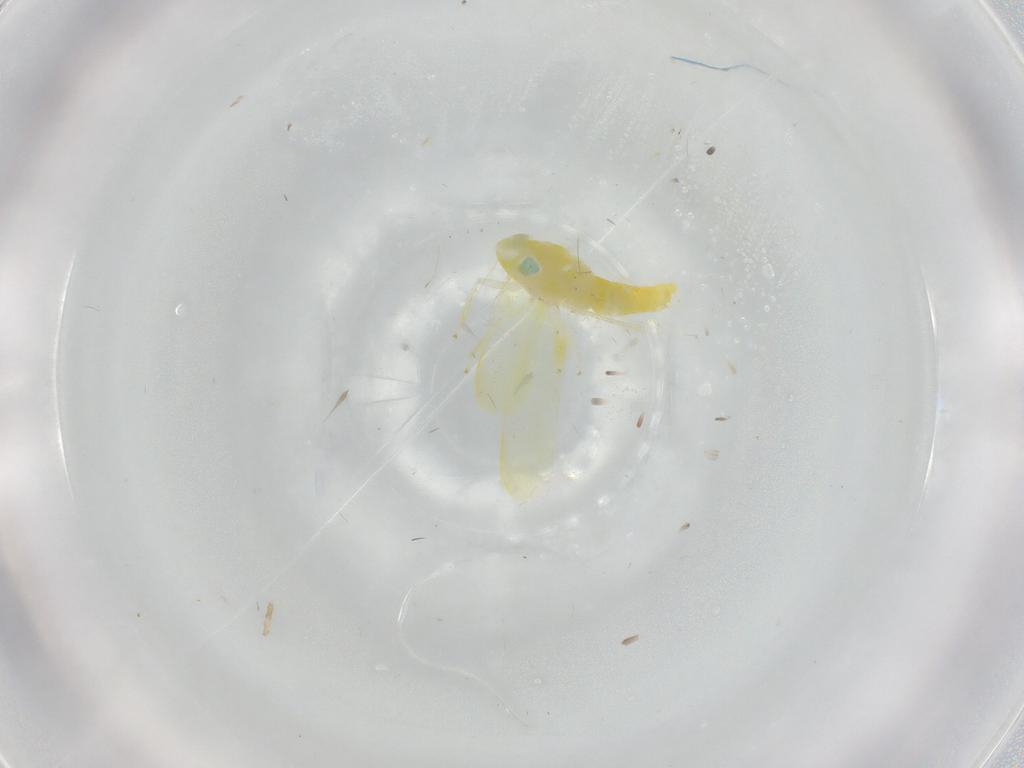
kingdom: Animalia
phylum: Arthropoda
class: Insecta
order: Hemiptera
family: Cicadellidae
